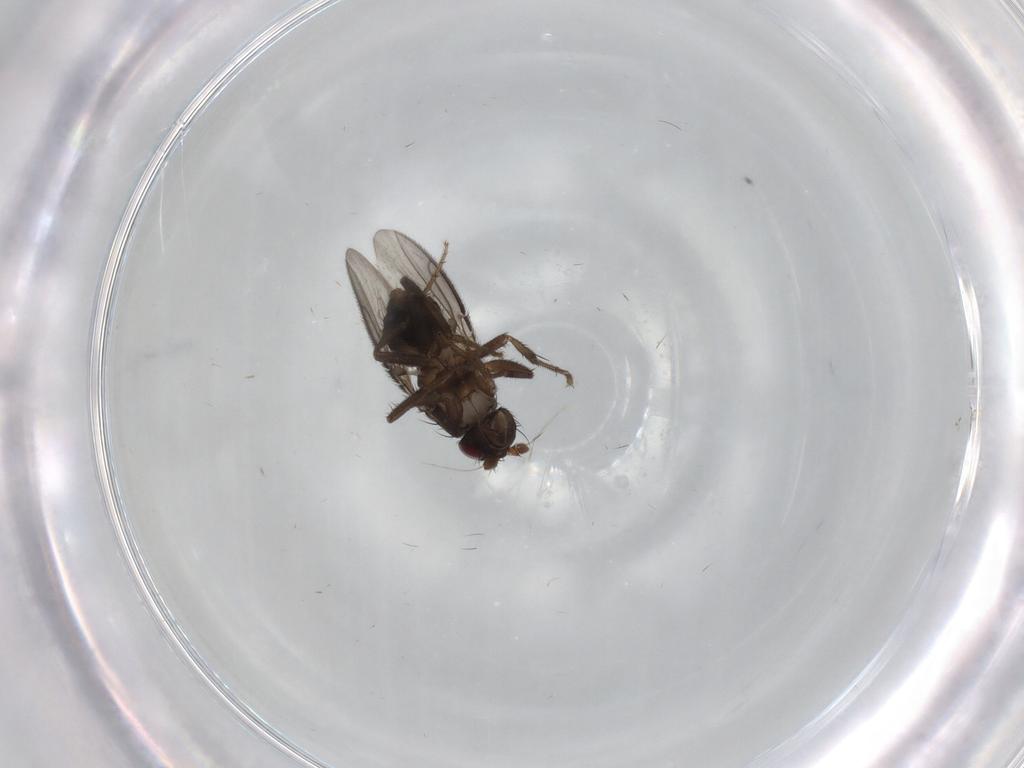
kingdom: Animalia
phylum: Arthropoda
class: Insecta
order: Diptera
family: Sphaeroceridae
